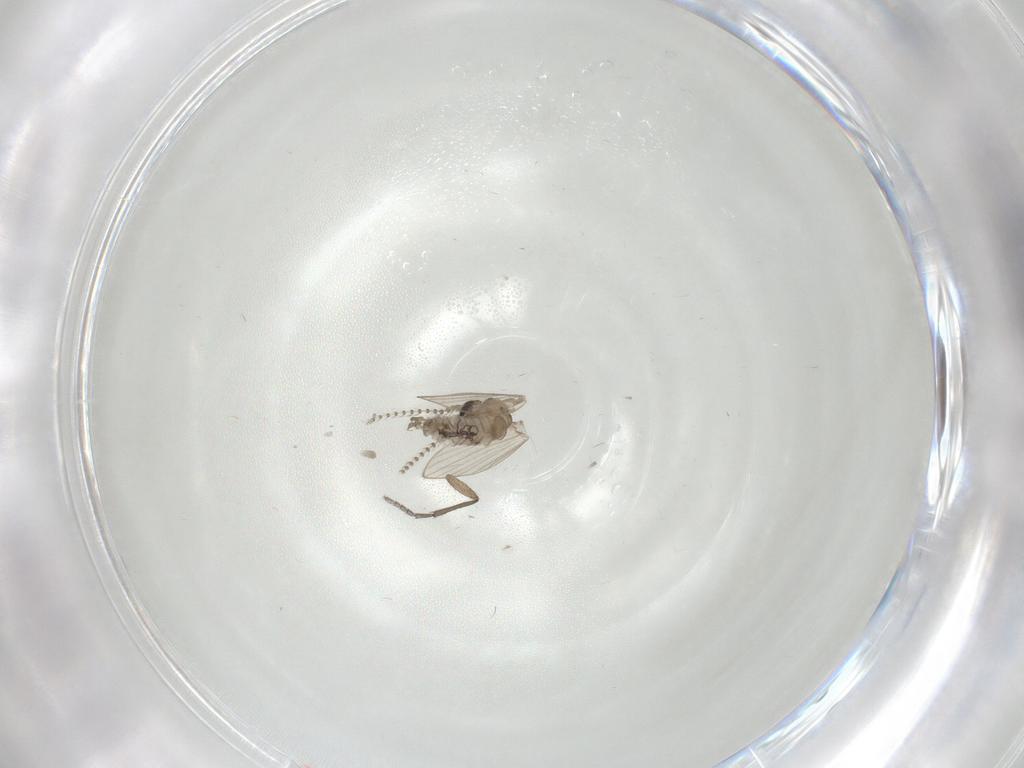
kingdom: Animalia
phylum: Arthropoda
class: Insecta
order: Diptera
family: Psychodidae
